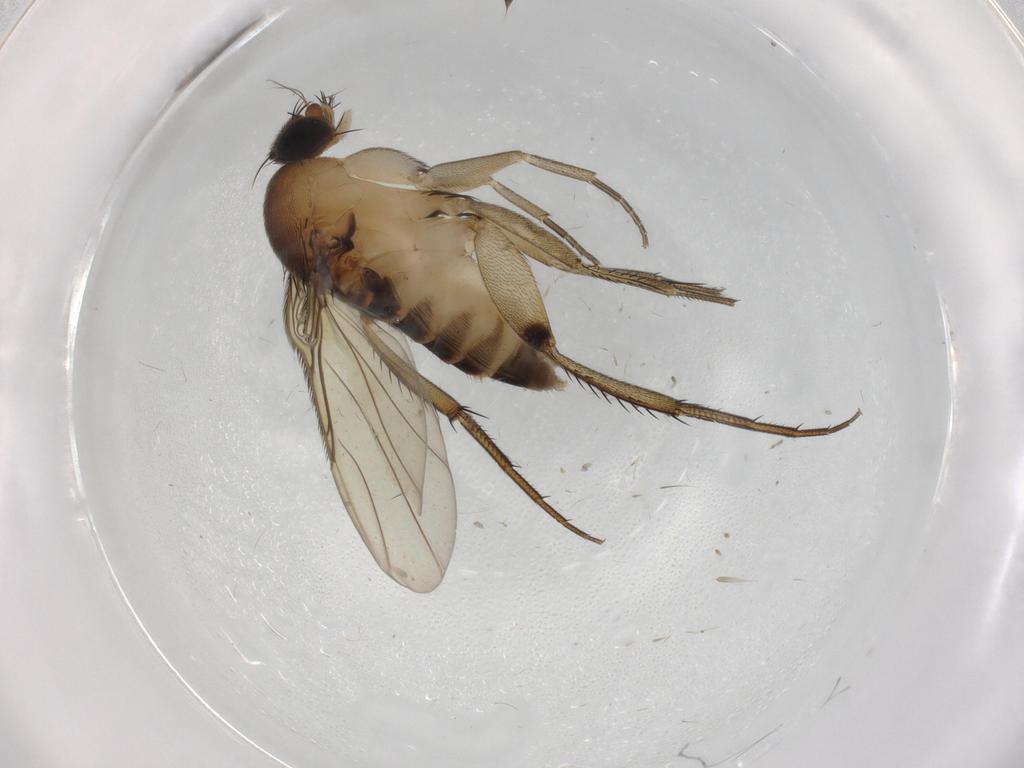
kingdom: Animalia
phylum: Arthropoda
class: Insecta
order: Diptera
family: Phoridae
